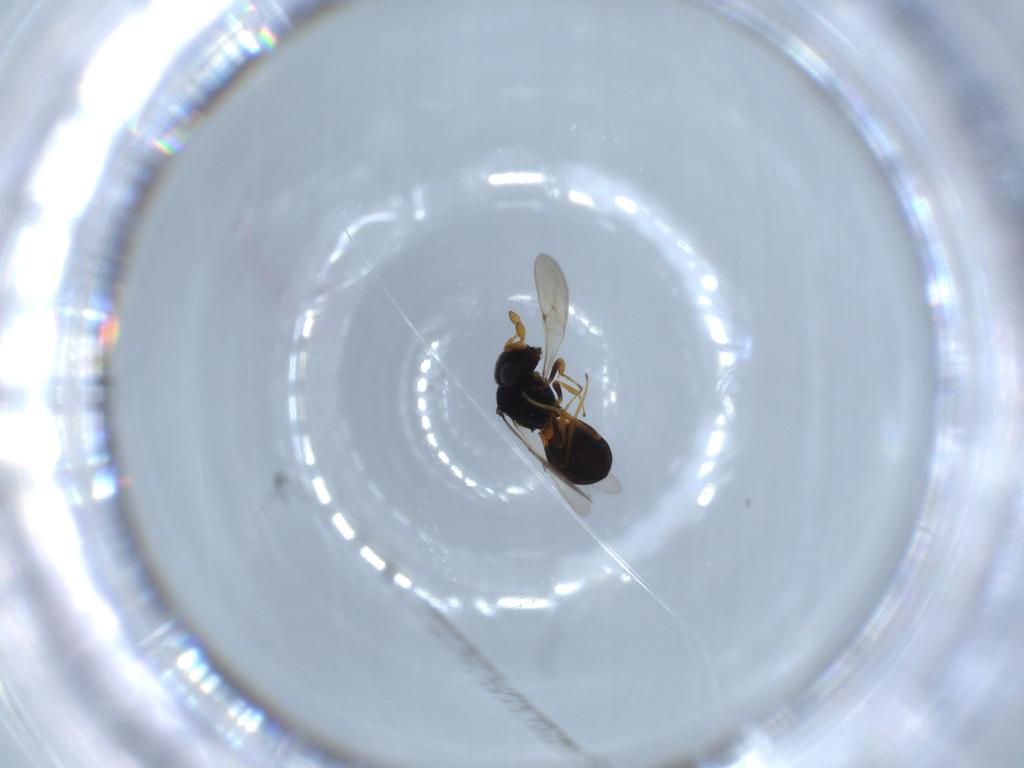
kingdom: Animalia
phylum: Arthropoda
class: Insecta
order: Hymenoptera
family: Scelionidae
